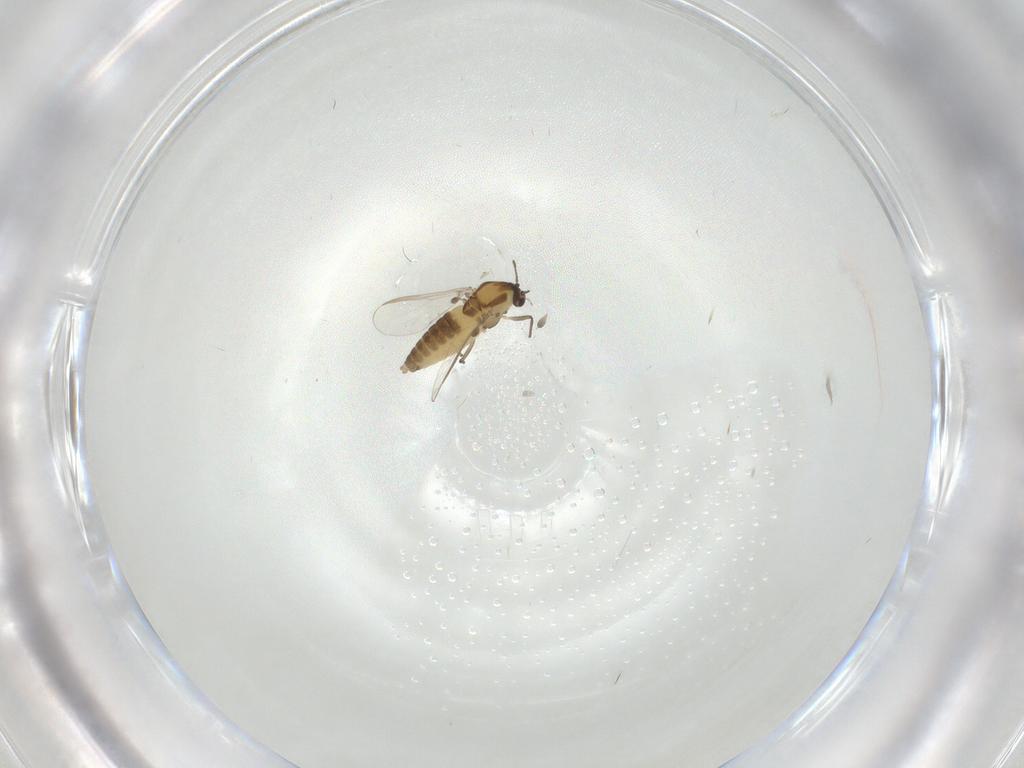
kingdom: Animalia
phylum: Arthropoda
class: Insecta
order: Diptera
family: Chironomidae
